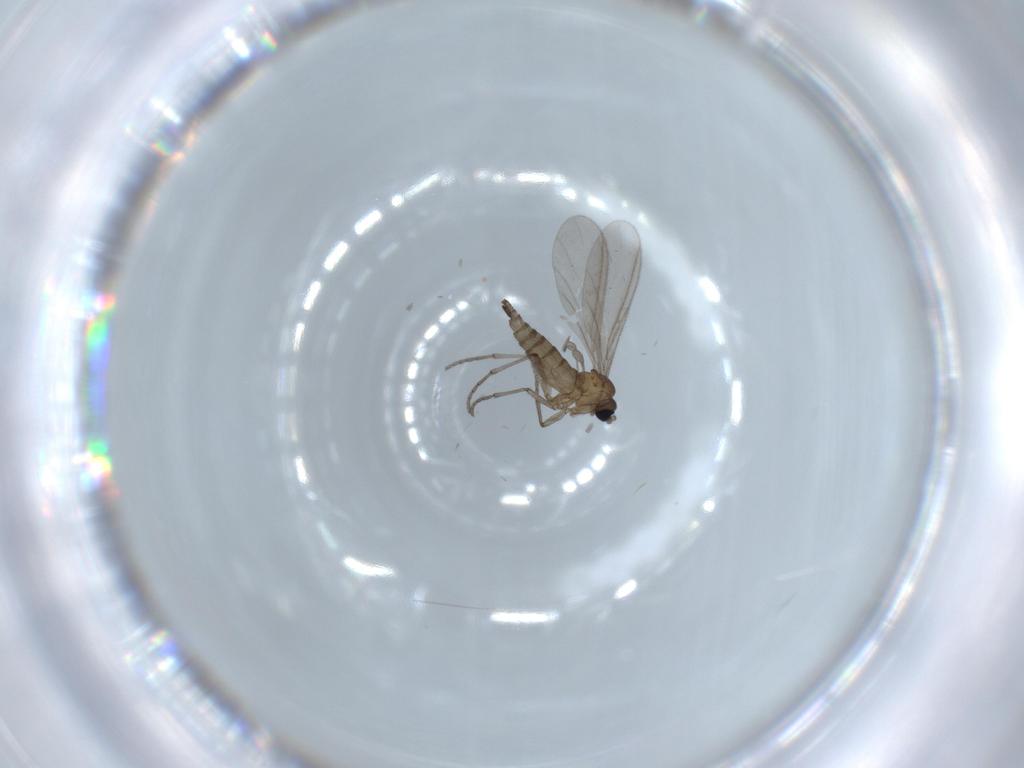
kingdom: Animalia
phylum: Arthropoda
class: Insecta
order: Diptera
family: Sciaridae
